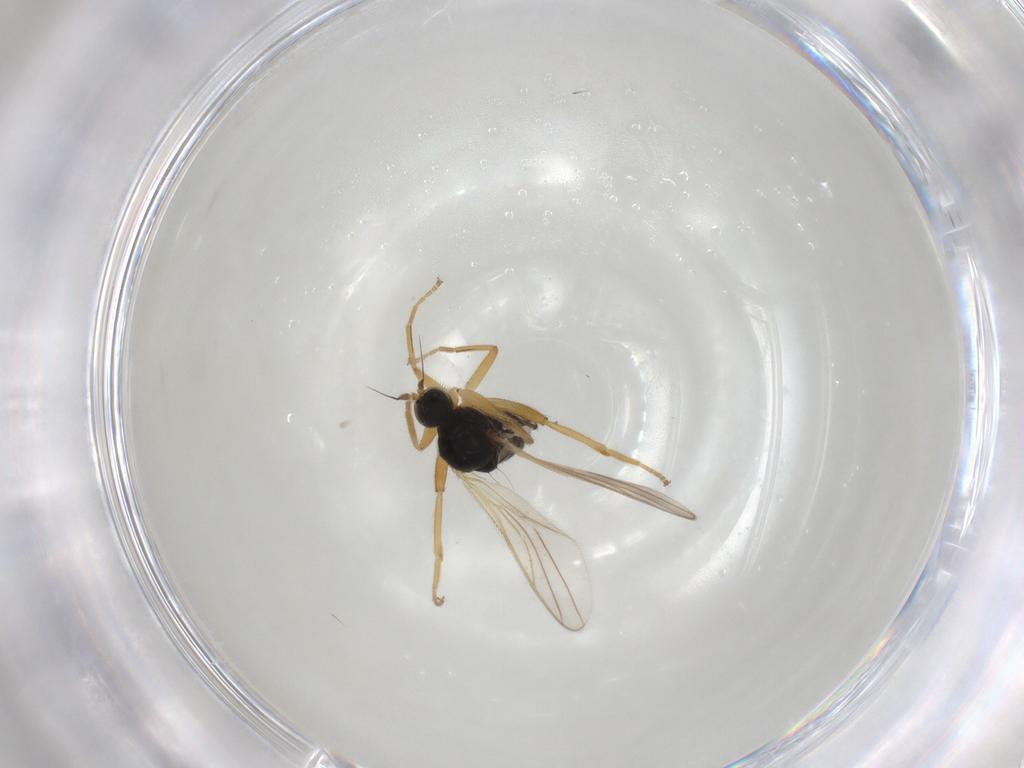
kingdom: Animalia
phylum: Arthropoda
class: Insecta
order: Diptera
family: Hybotidae
